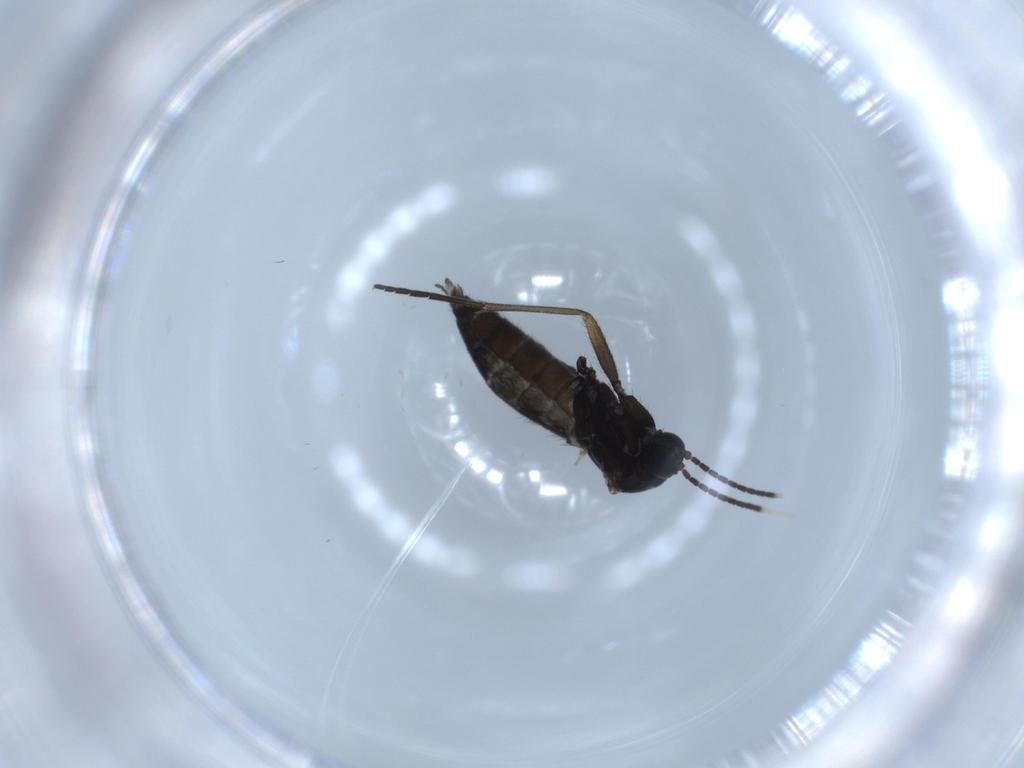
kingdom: Animalia
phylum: Arthropoda
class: Insecta
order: Diptera
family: Sciaridae
